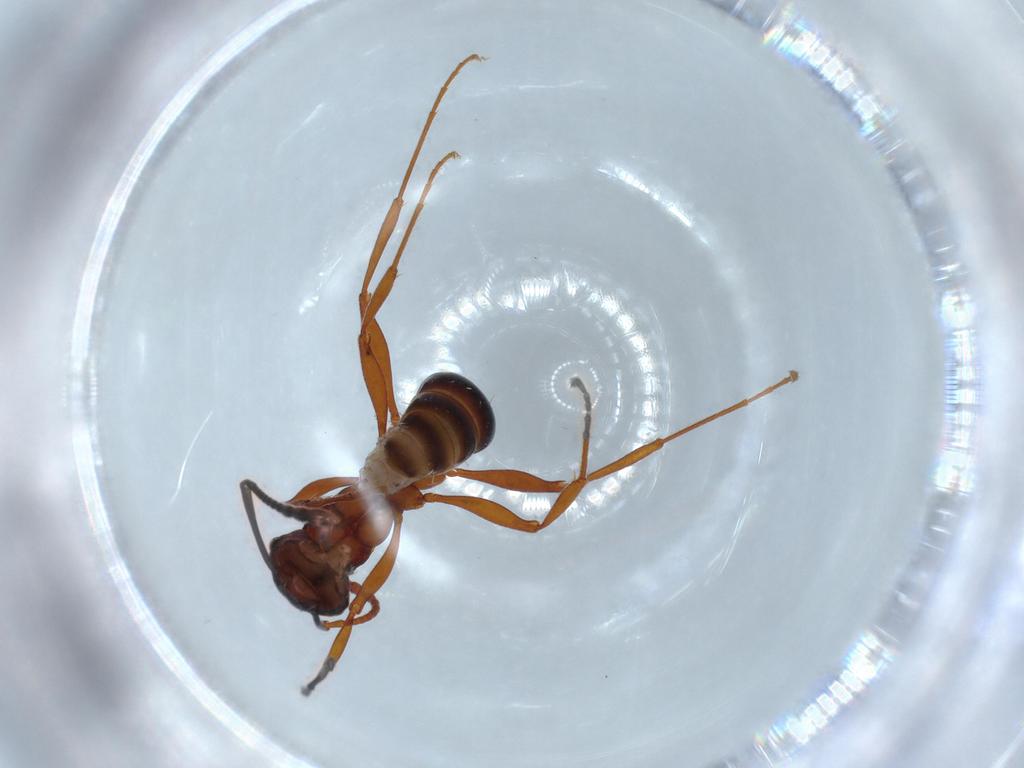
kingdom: Animalia
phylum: Arthropoda
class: Insecta
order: Hymenoptera
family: Formicidae
